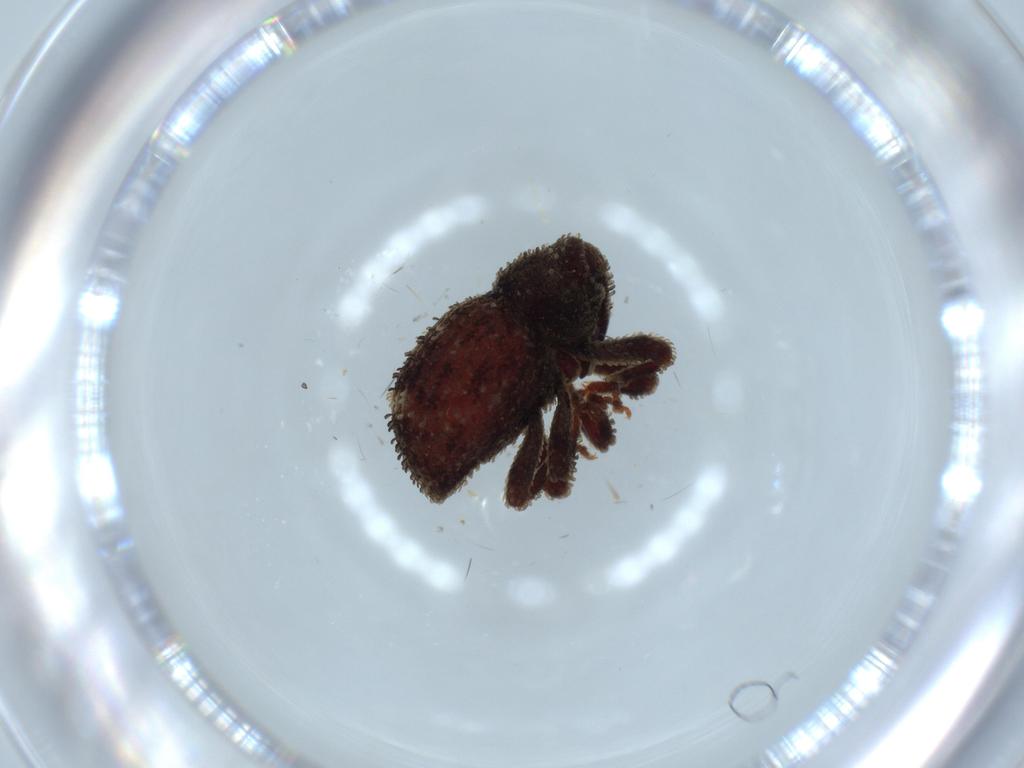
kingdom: Animalia
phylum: Arthropoda
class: Insecta
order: Coleoptera
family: Curculionidae
